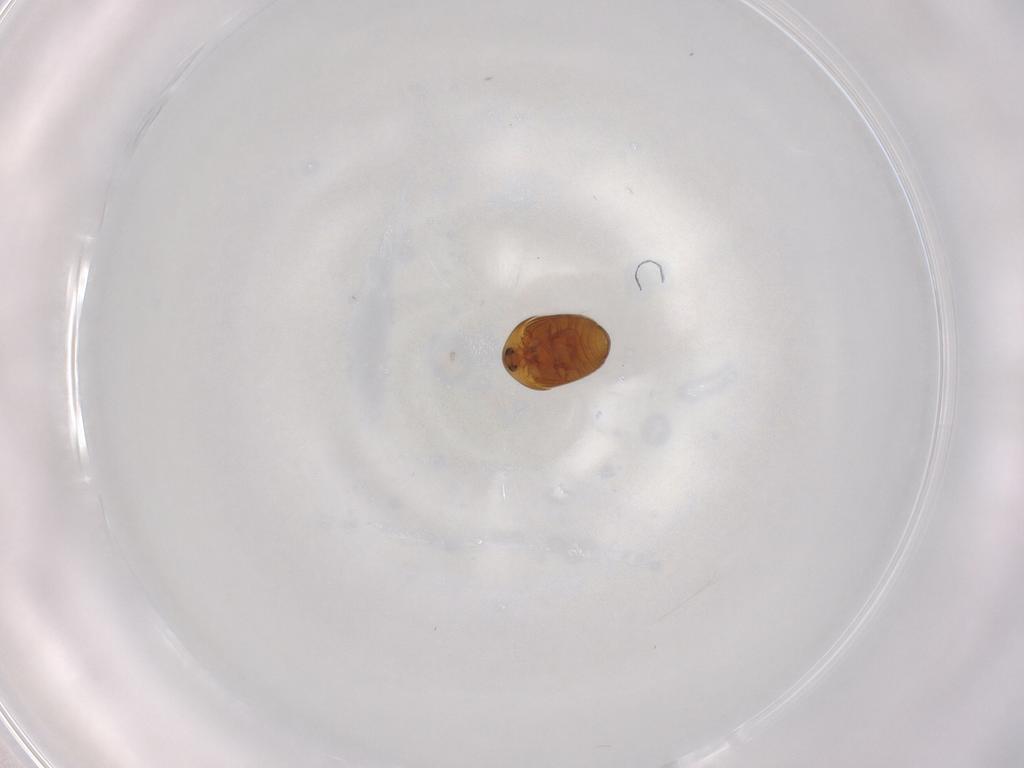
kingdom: Animalia
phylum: Arthropoda
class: Insecta
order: Coleoptera
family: Corylophidae
